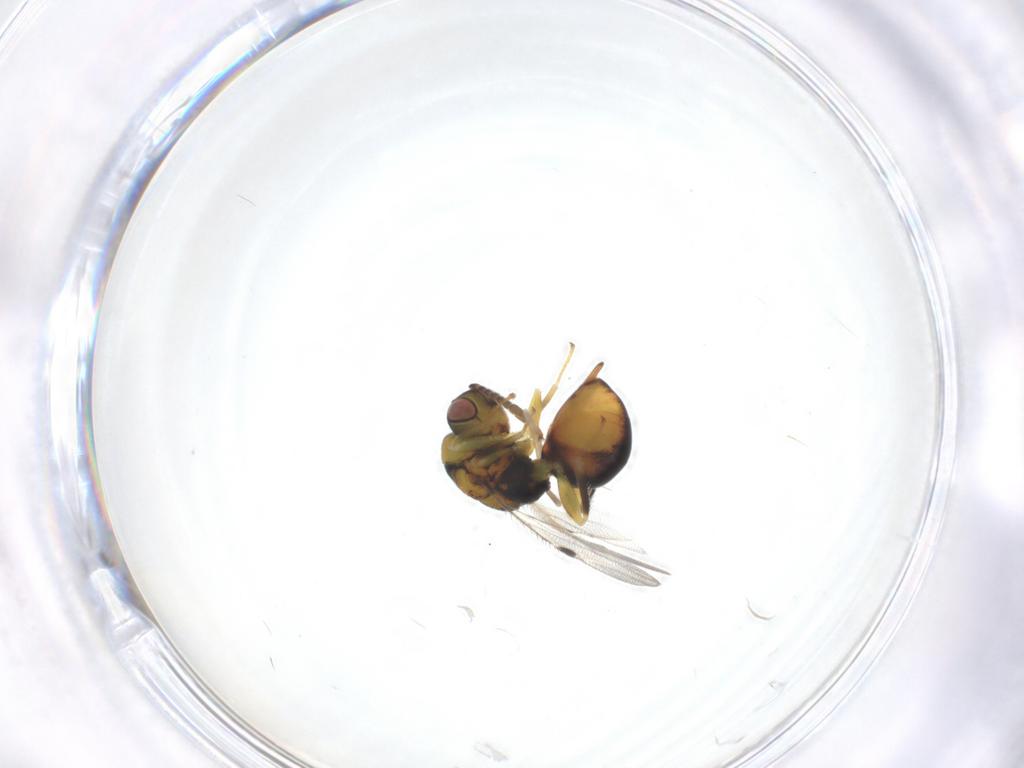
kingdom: Animalia
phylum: Arthropoda
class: Insecta
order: Hymenoptera
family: Eurytomidae
